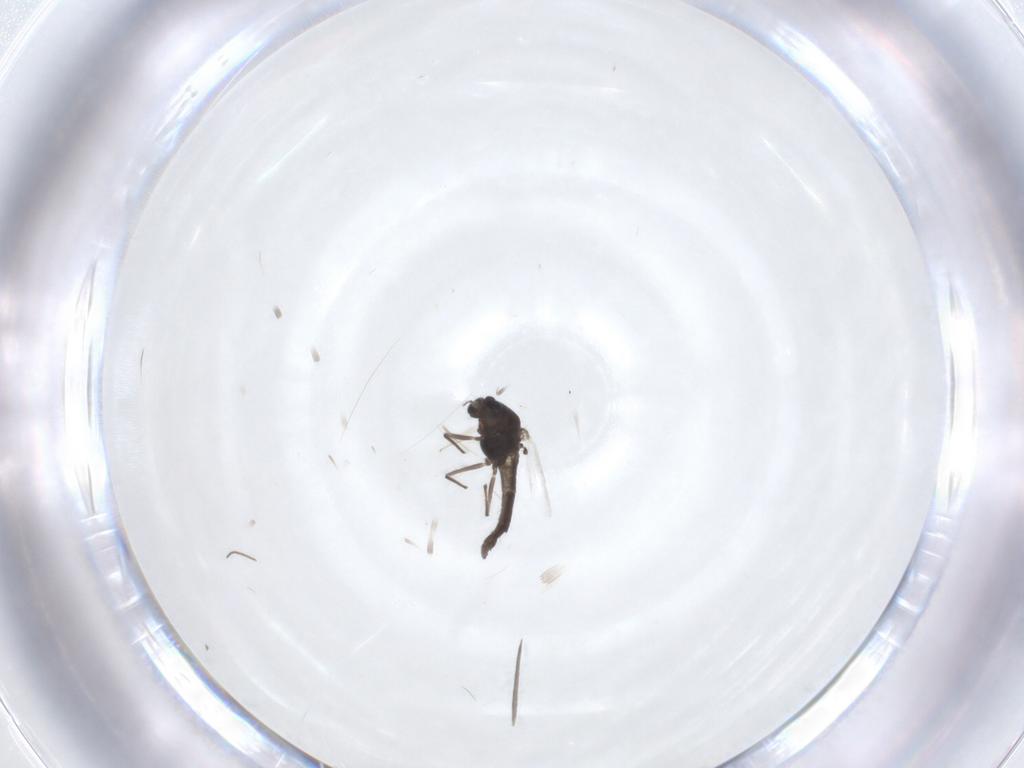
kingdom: Animalia
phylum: Arthropoda
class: Insecta
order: Diptera
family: Chironomidae
